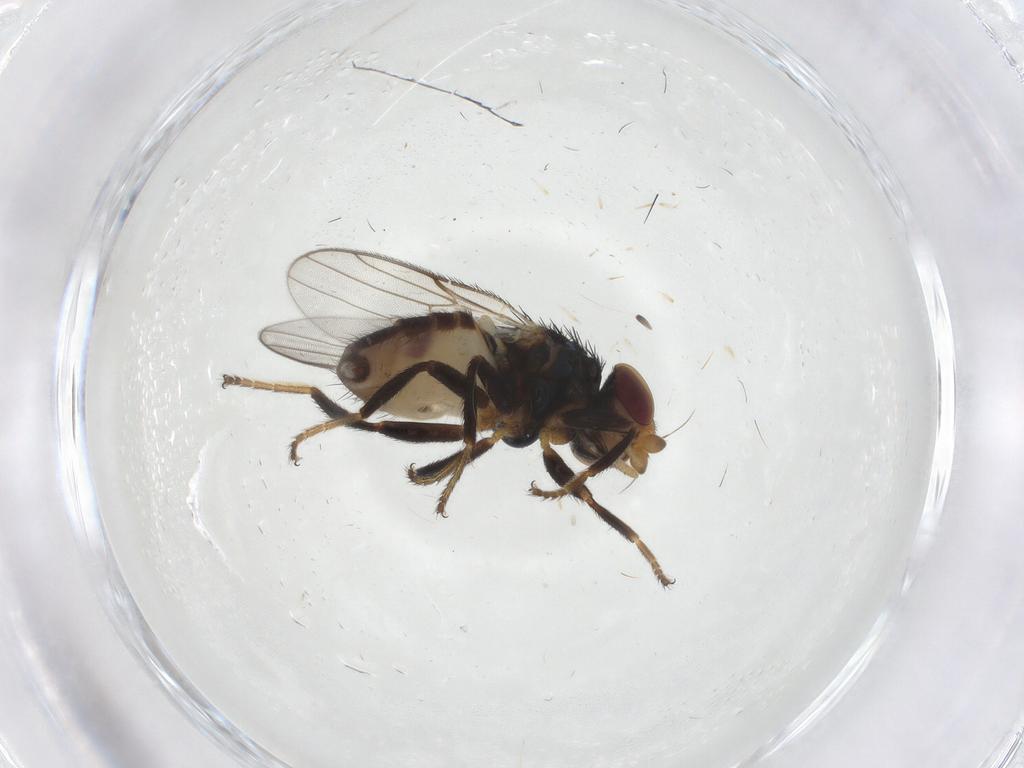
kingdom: Animalia
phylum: Arthropoda
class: Insecta
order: Diptera
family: Chloropidae
